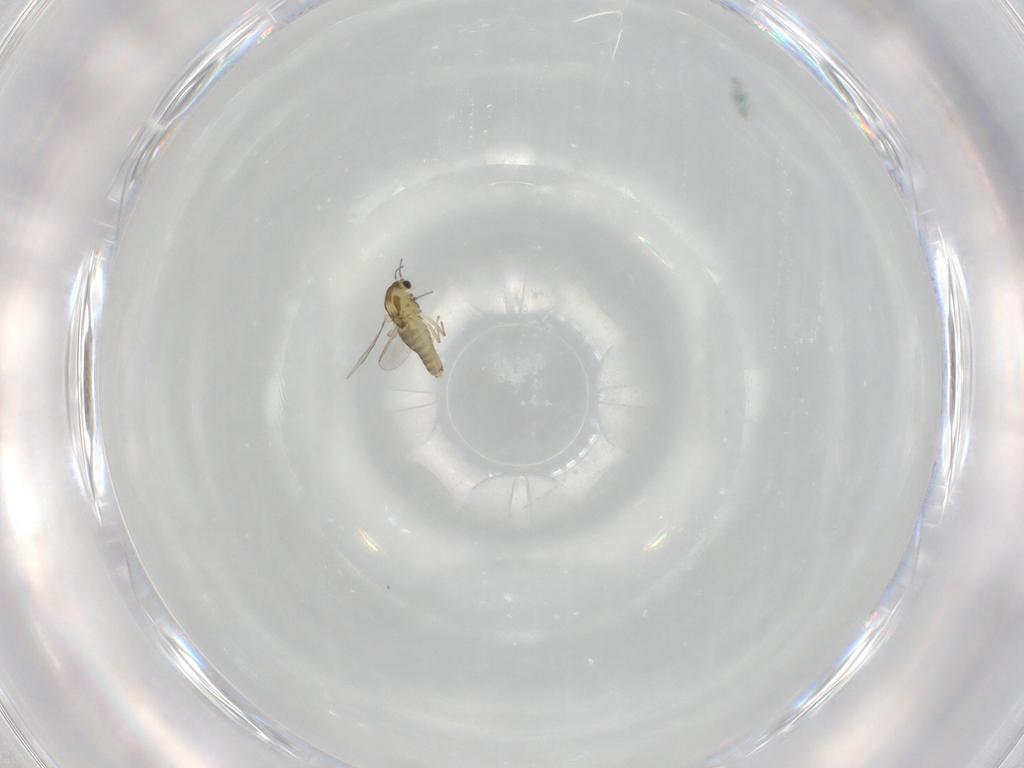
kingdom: Animalia
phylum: Arthropoda
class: Insecta
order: Diptera
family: Chironomidae
